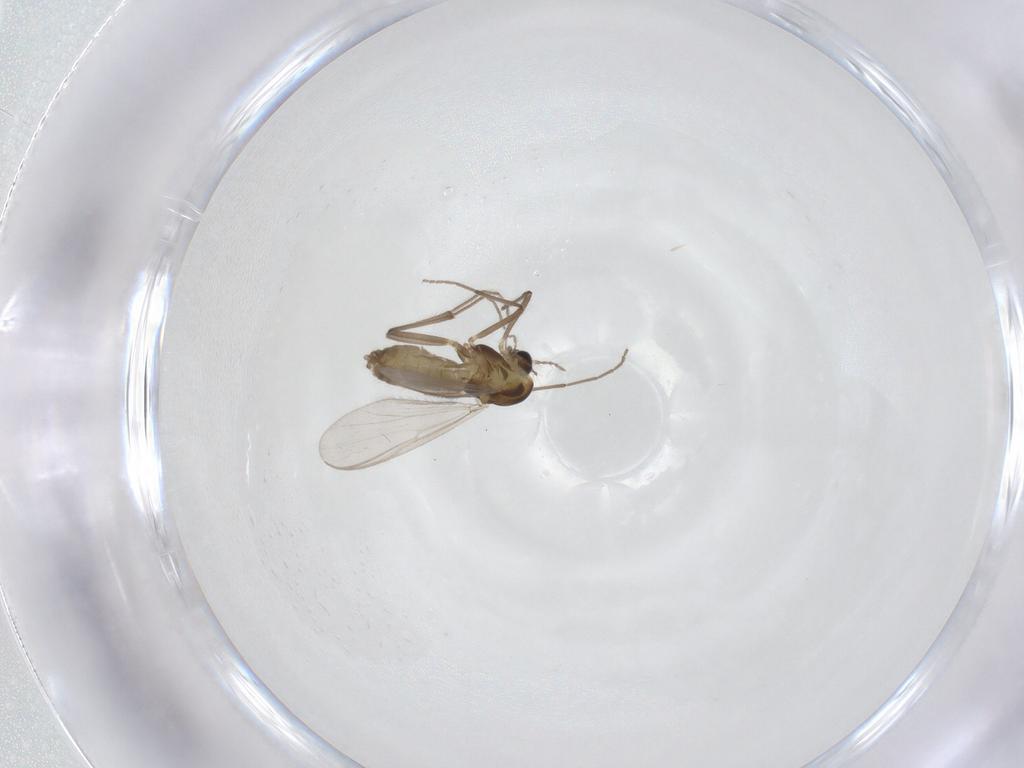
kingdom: Animalia
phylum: Arthropoda
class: Insecta
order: Diptera
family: Chironomidae
